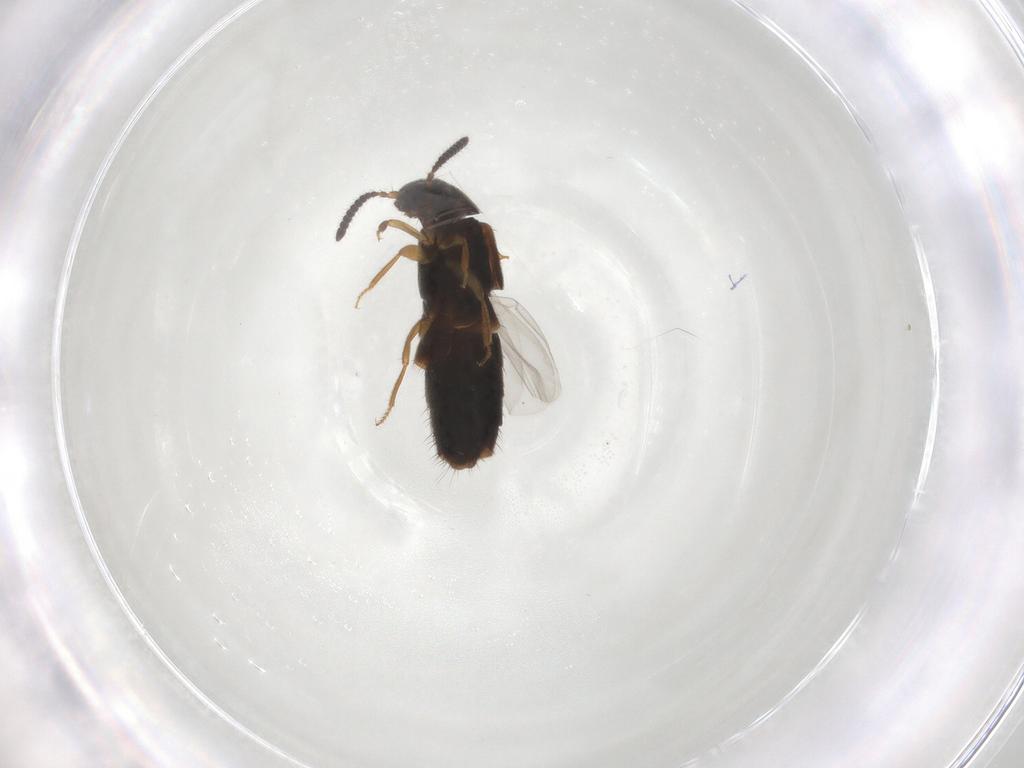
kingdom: Animalia
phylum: Arthropoda
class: Insecta
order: Coleoptera
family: Staphylinidae
